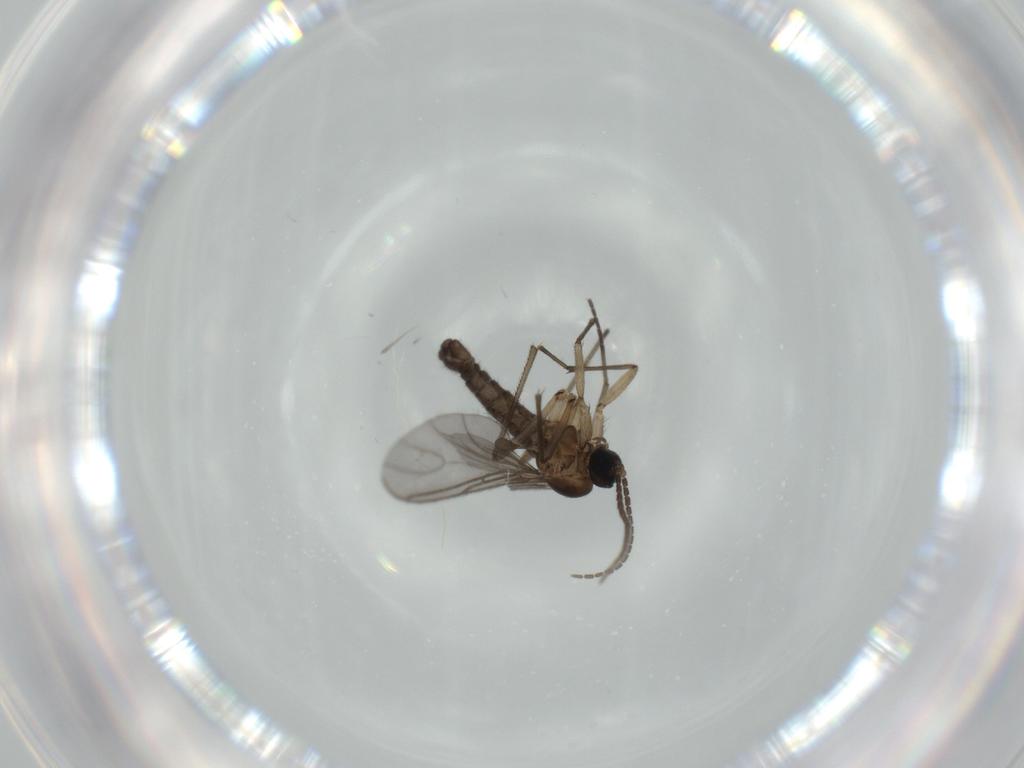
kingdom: Animalia
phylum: Arthropoda
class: Insecta
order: Diptera
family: Sciaridae
